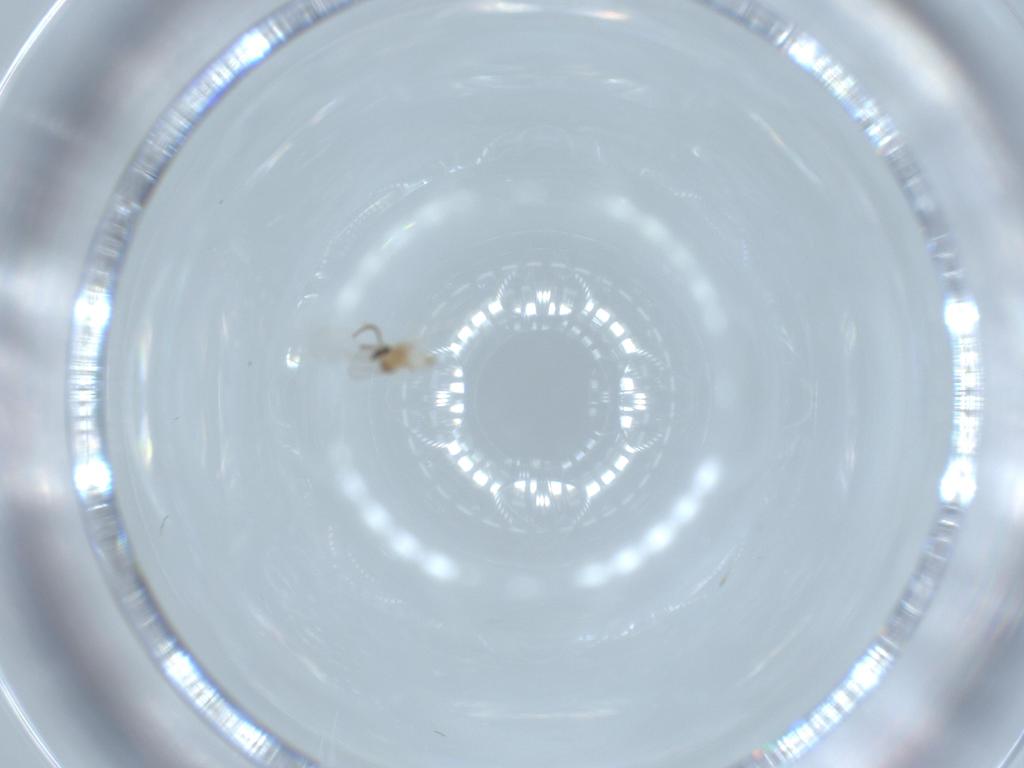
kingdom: Animalia
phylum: Arthropoda
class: Insecta
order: Diptera
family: Cecidomyiidae
